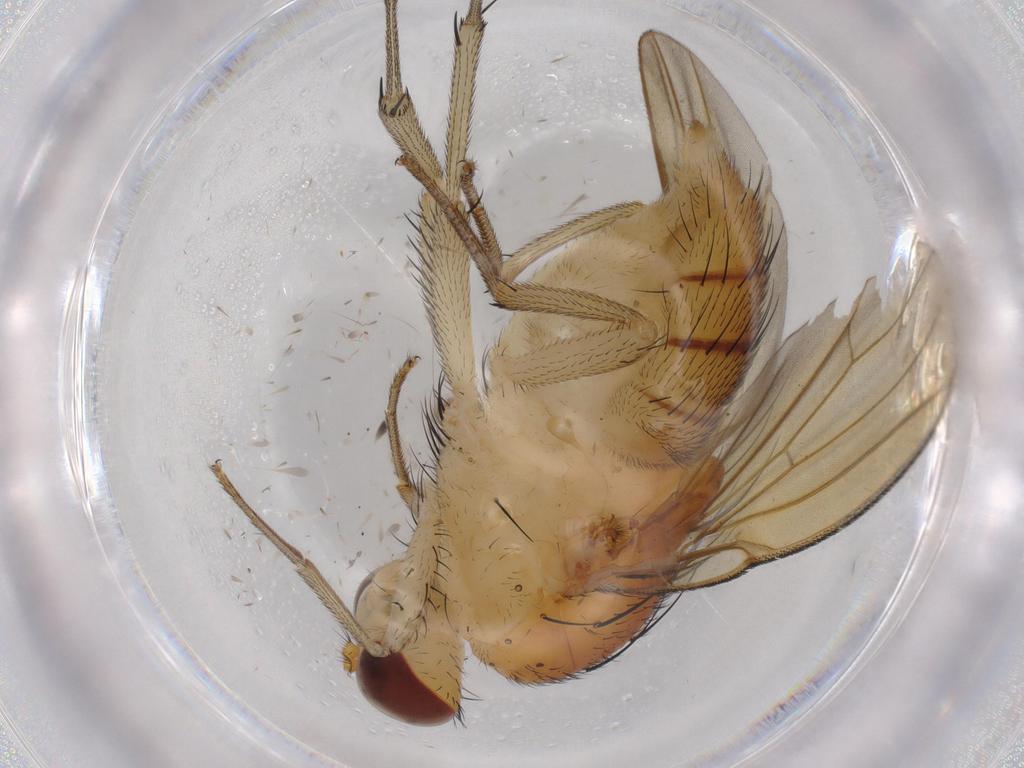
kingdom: Animalia
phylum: Arthropoda
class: Insecta
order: Diptera
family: Sciaridae
